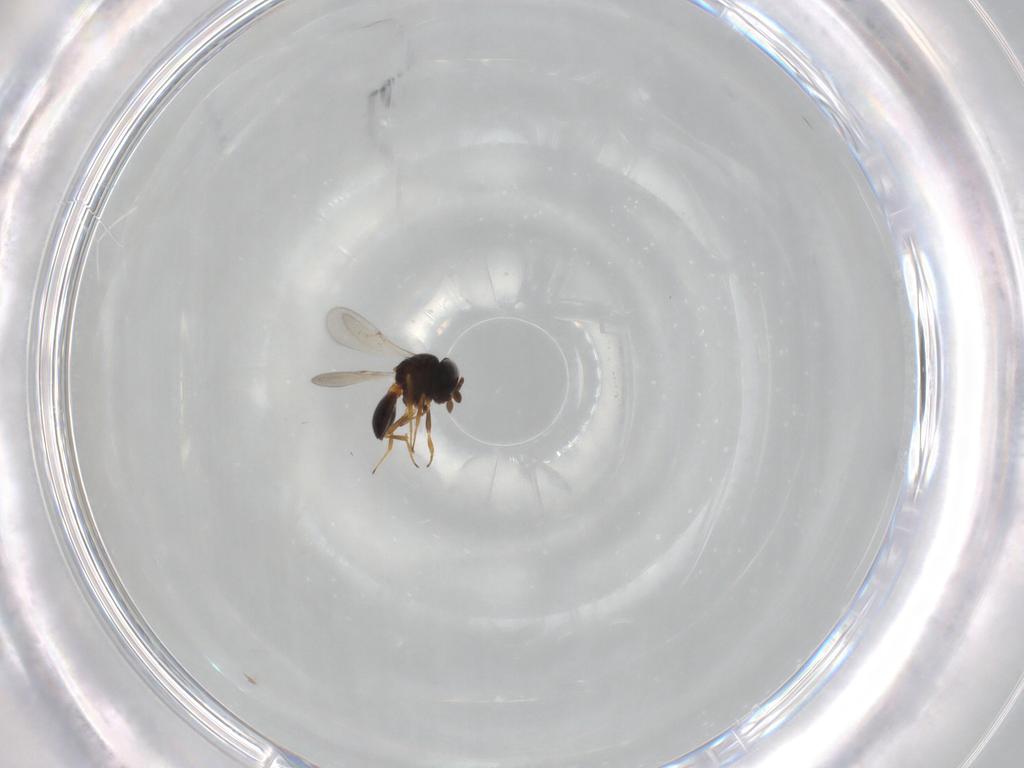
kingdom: Animalia
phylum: Arthropoda
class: Insecta
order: Hymenoptera
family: Scelionidae
